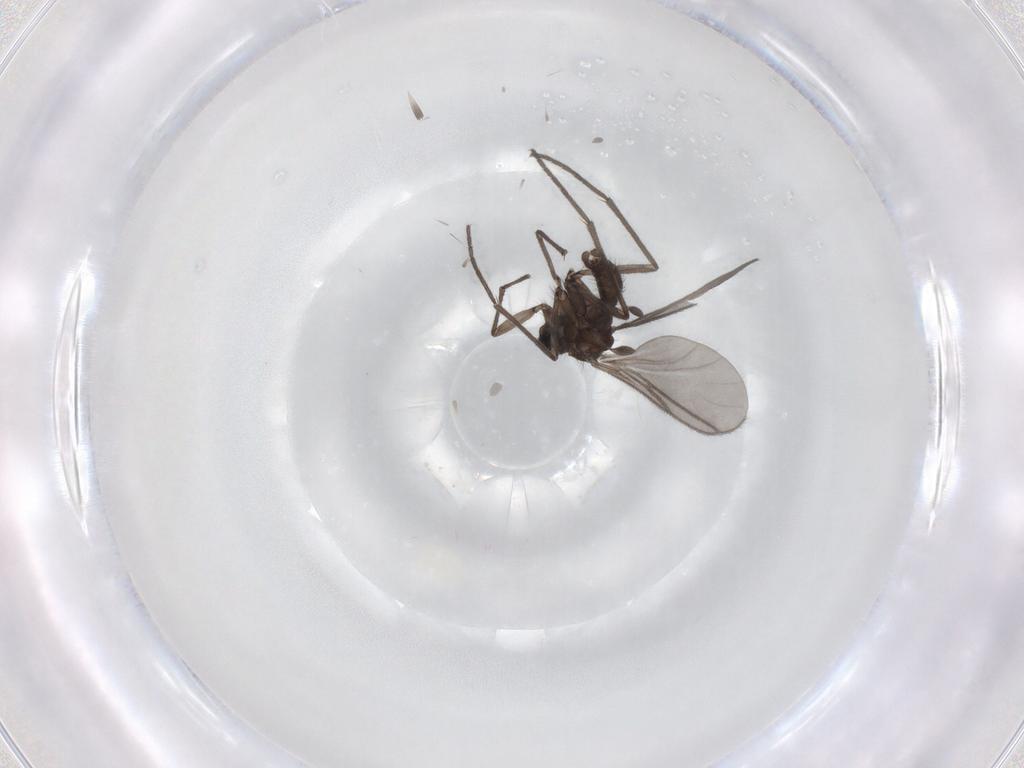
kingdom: Animalia
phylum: Arthropoda
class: Insecta
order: Diptera
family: Sciaridae
